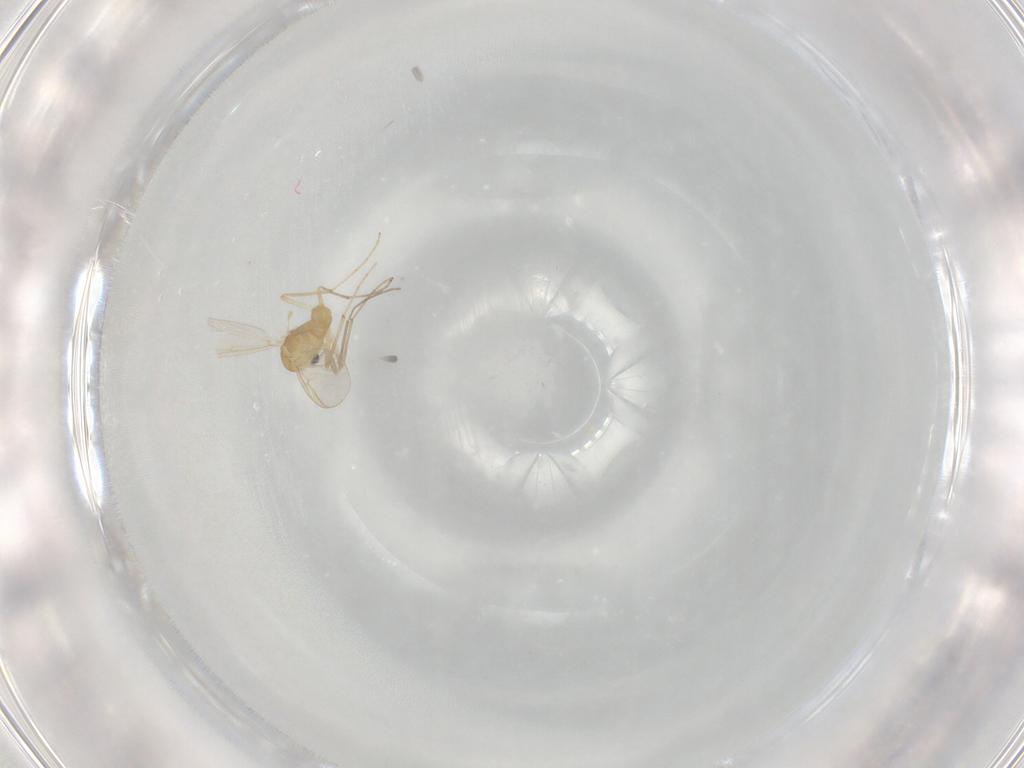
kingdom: Animalia
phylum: Arthropoda
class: Insecta
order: Diptera
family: Chironomidae
